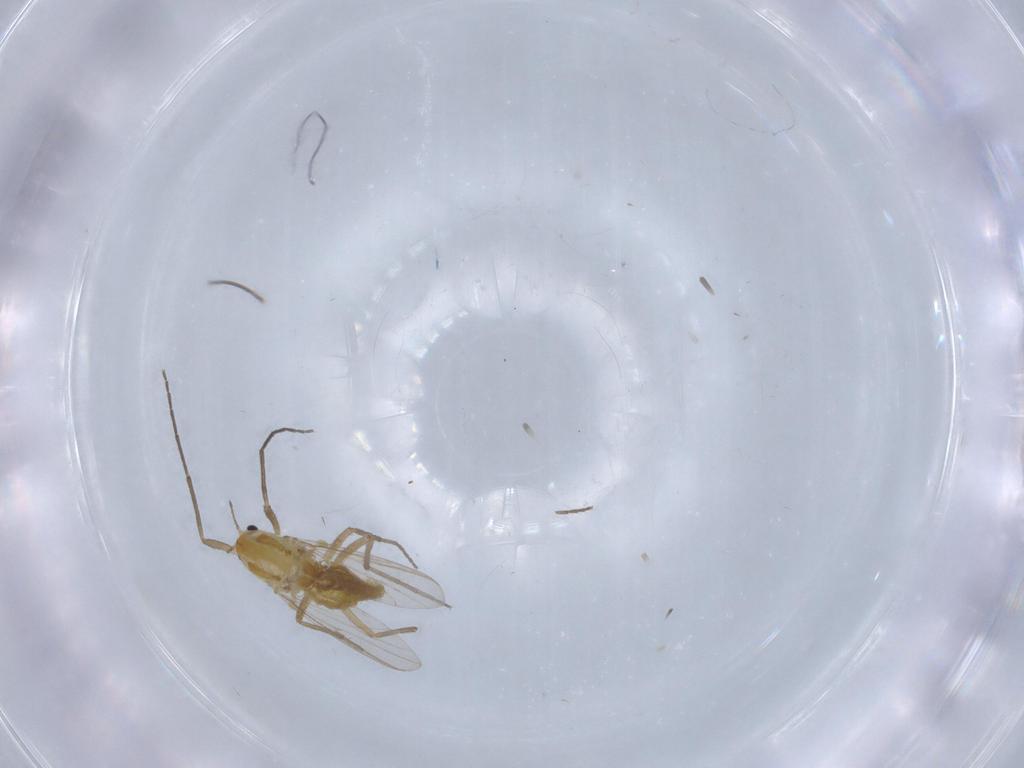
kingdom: Animalia
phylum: Arthropoda
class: Insecta
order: Diptera
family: Chironomidae
